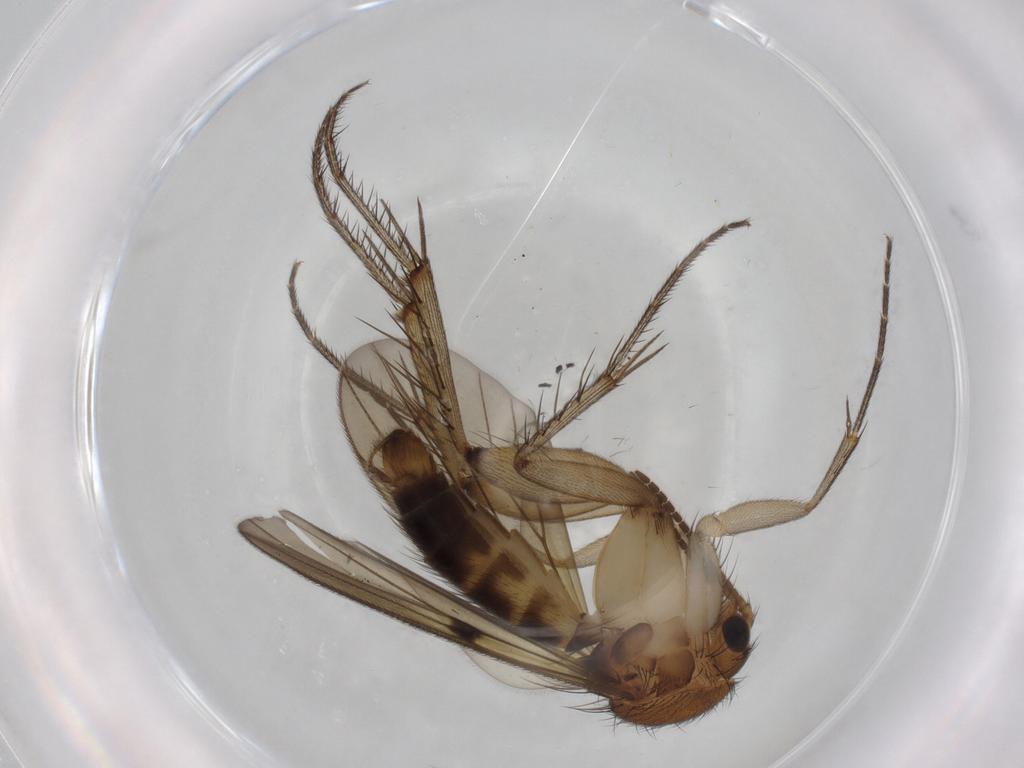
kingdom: Animalia
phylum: Arthropoda
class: Insecta
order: Diptera
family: Mycetophilidae
